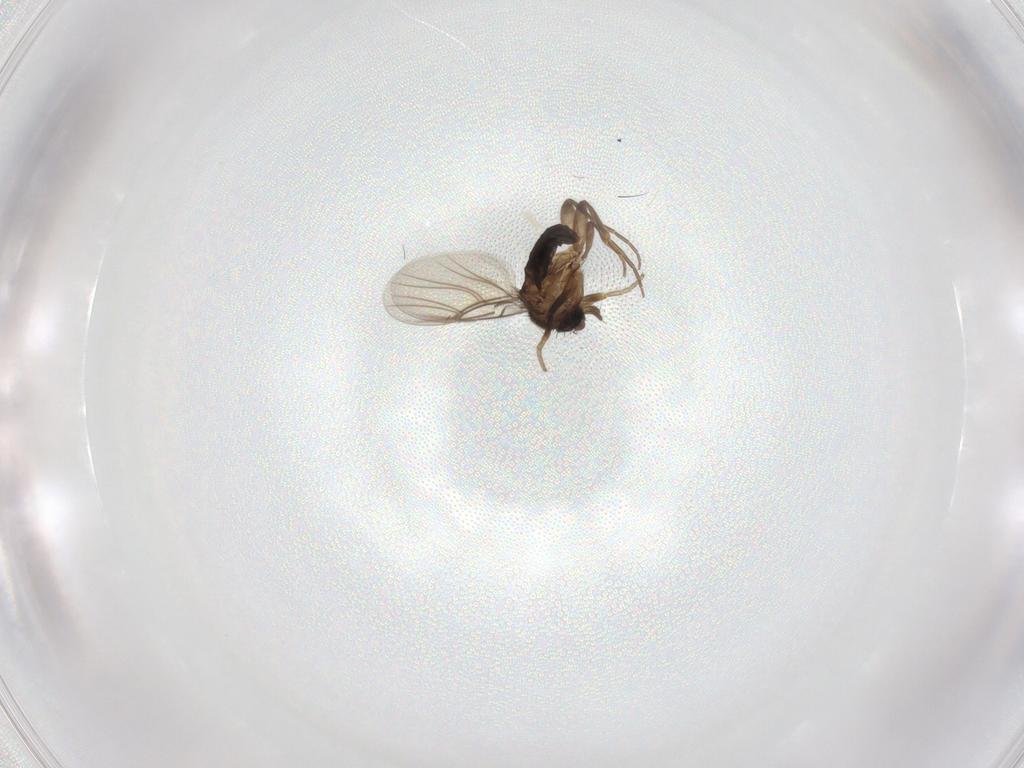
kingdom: Animalia
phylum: Arthropoda
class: Insecta
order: Diptera
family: Phoridae
